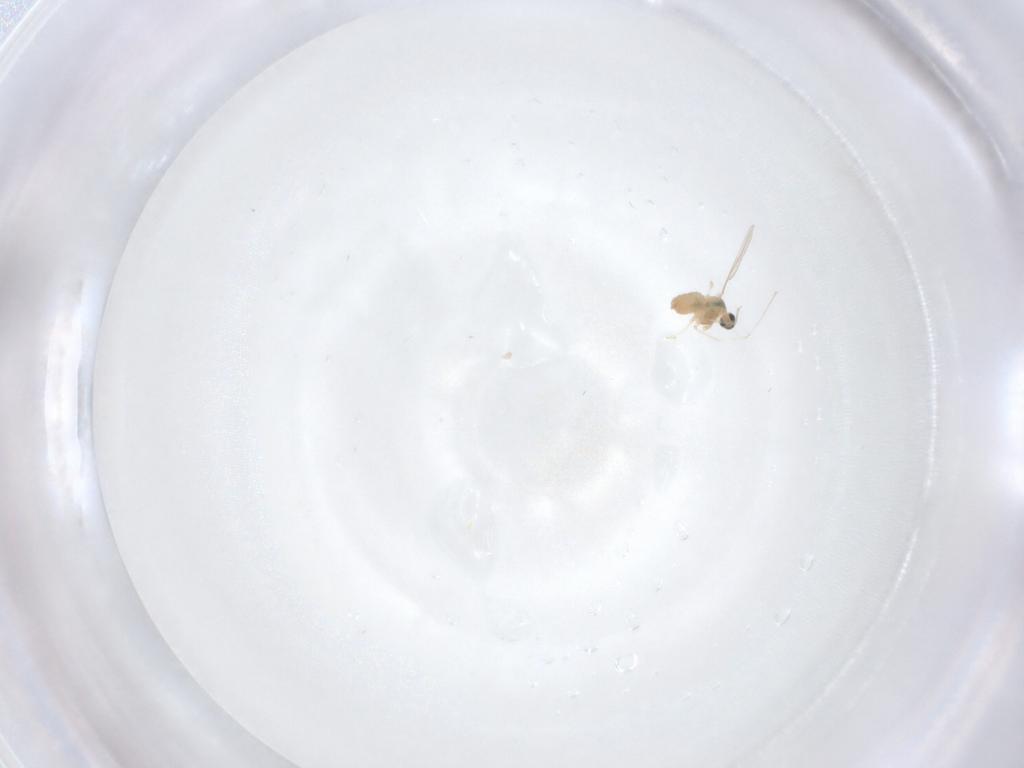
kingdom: Animalia
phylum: Arthropoda
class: Insecta
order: Diptera
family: Cecidomyiidae
